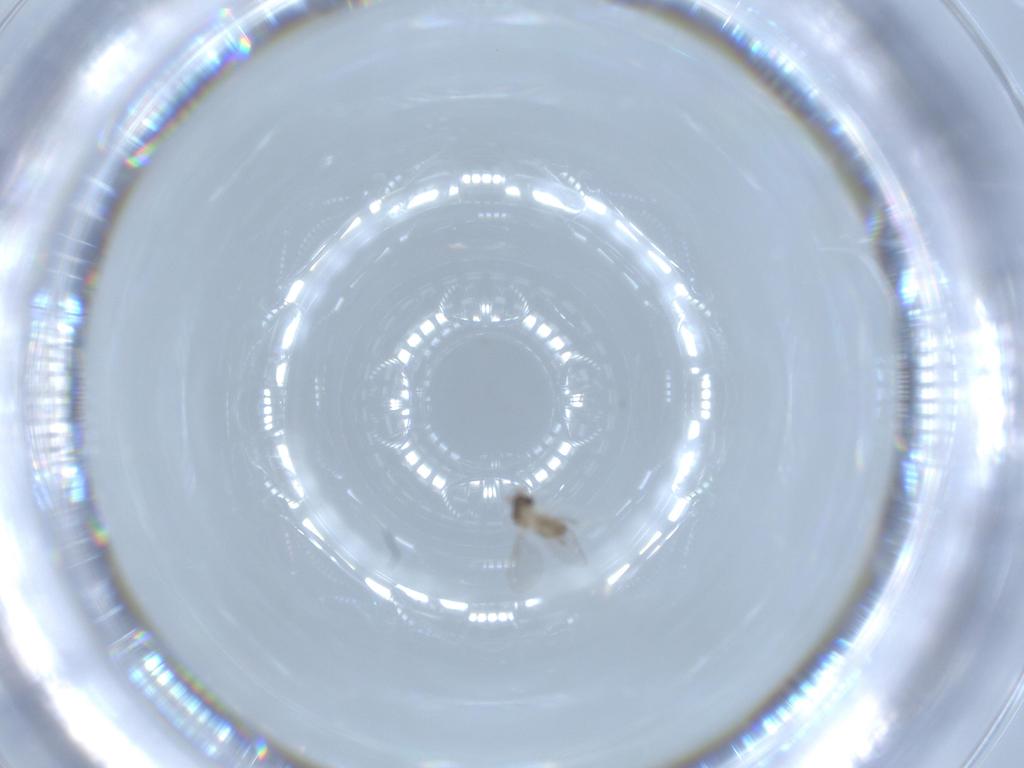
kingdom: Animalia
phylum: Arthropoda
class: Insecta
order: Diptera
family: Cecidomyiidae
